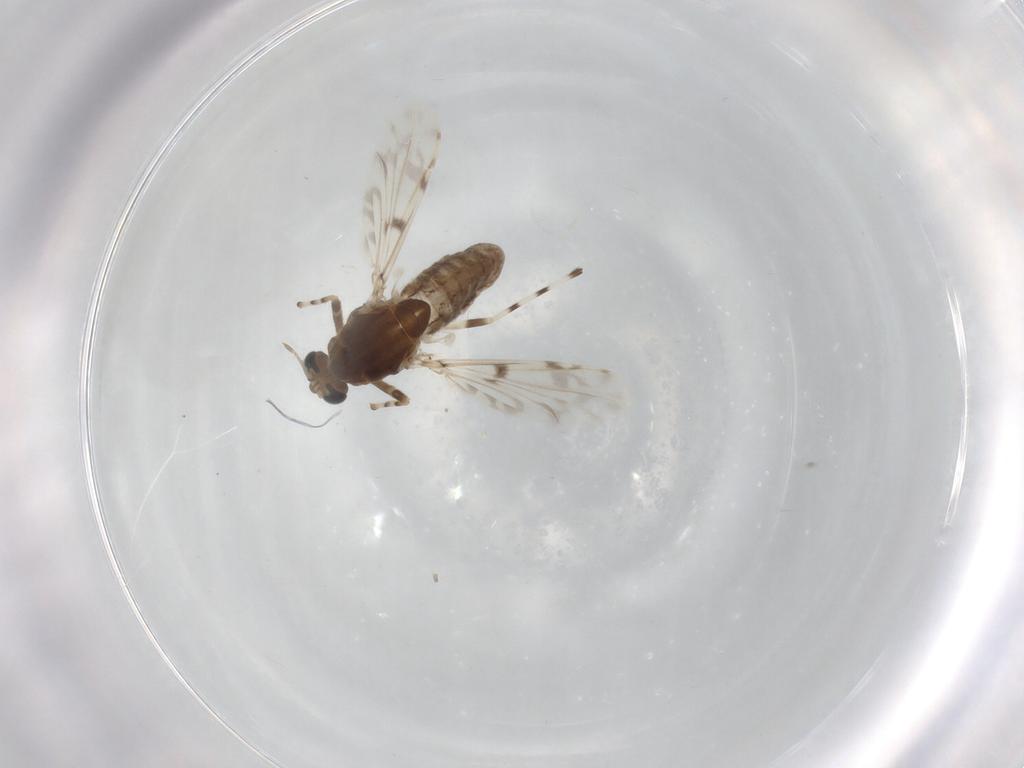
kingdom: Animalia
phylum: Arthropoda
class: Insecta
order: Diptera
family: Chironomidae
